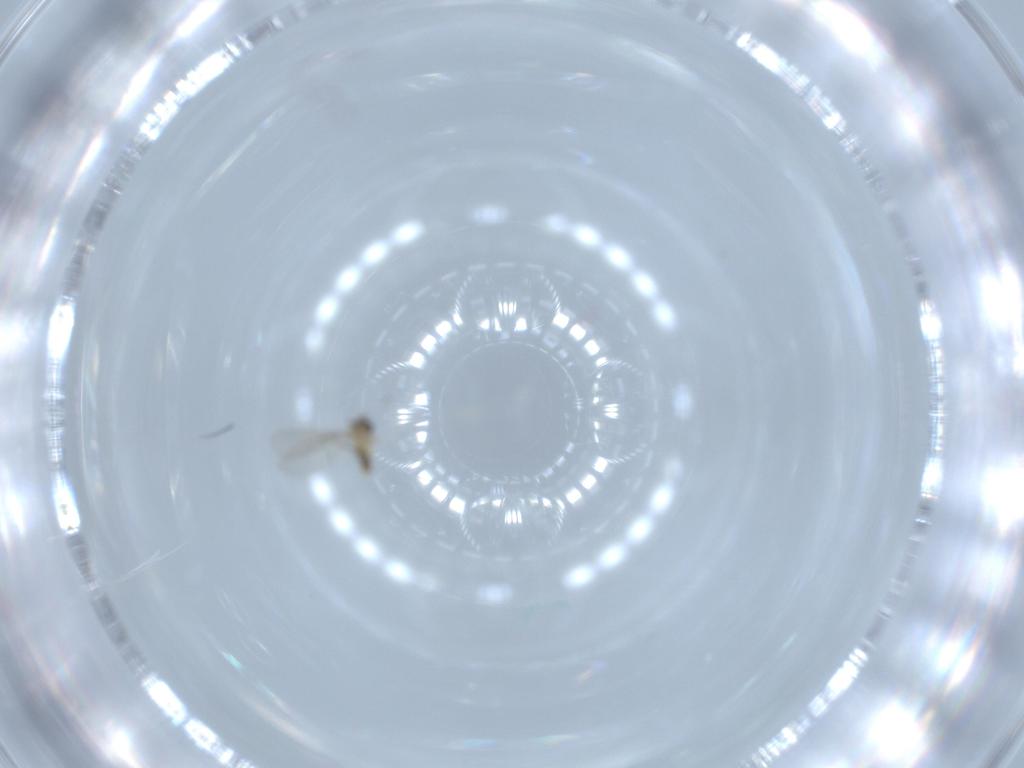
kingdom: Animalia
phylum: Arthropoda
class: Insecta
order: Diptera
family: Cecidomyiidae
